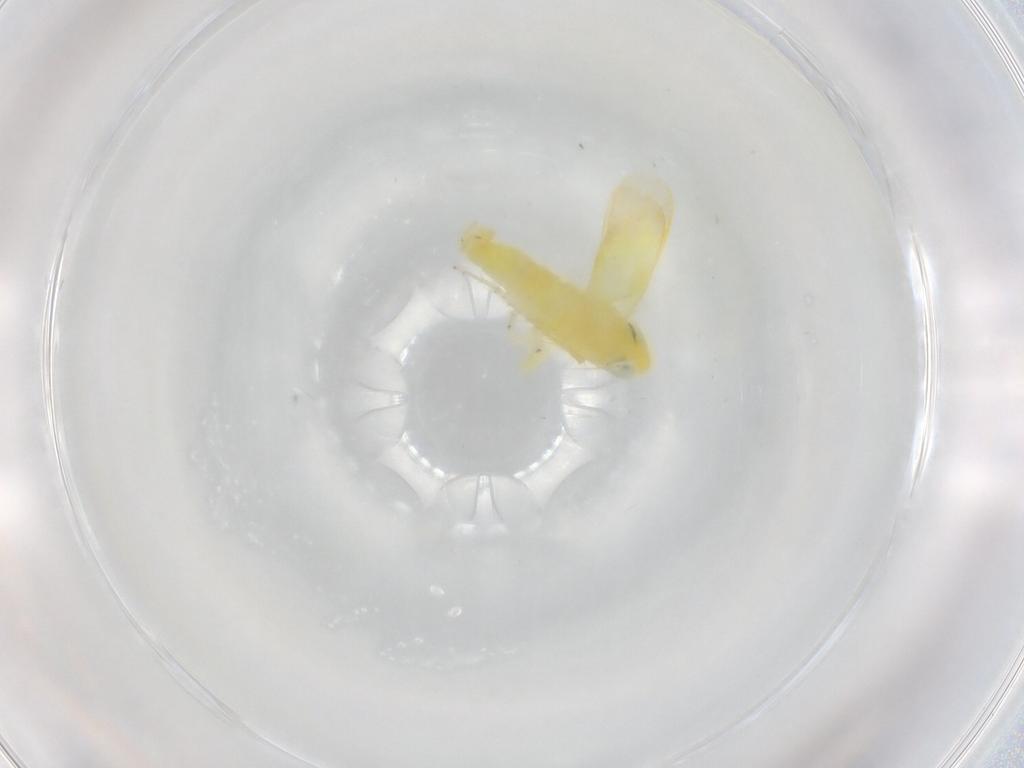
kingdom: Animalia
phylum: Arthropoda
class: Insecta
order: Hemiptera
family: Cicadellidae
